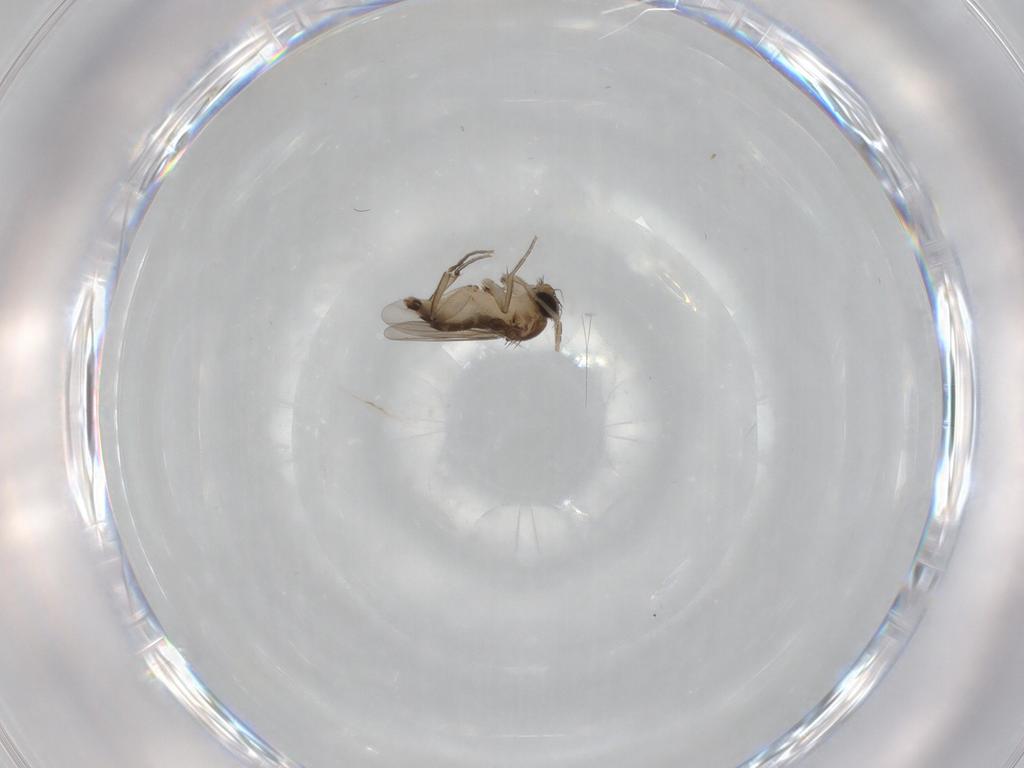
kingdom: Animalia
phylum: Arthropoda
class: Insecta
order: Diptera
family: Phoridae
